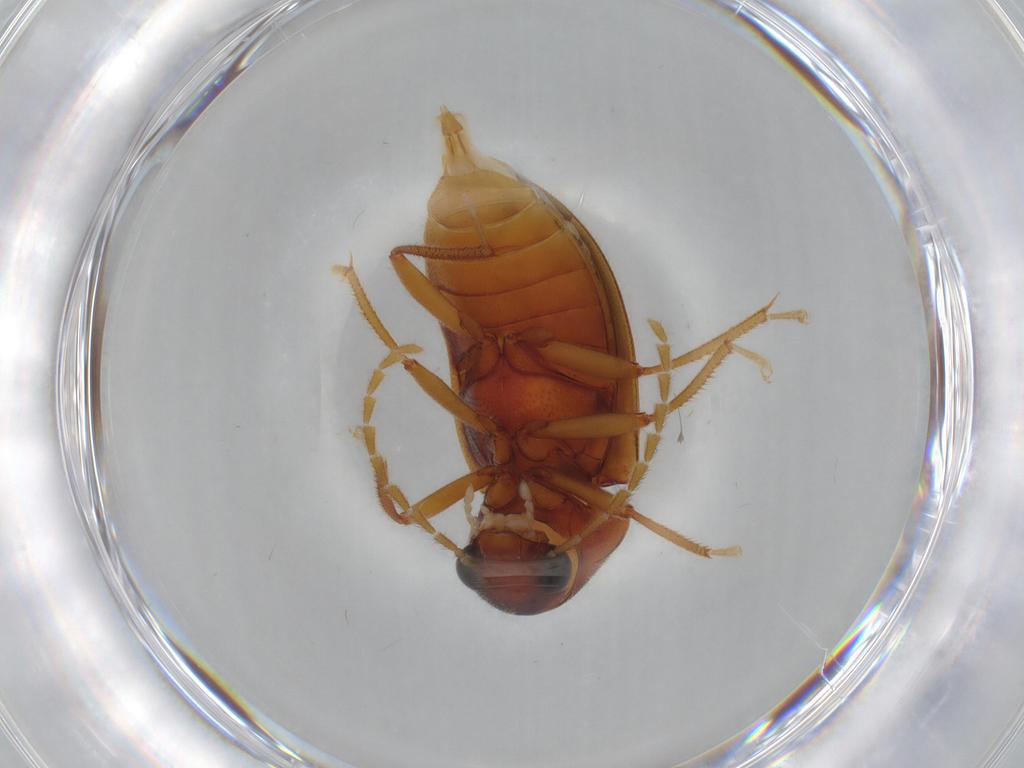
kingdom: Animalia
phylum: Arthropoda
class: Insecta
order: Coleoptera
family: Ptilodactylidae
